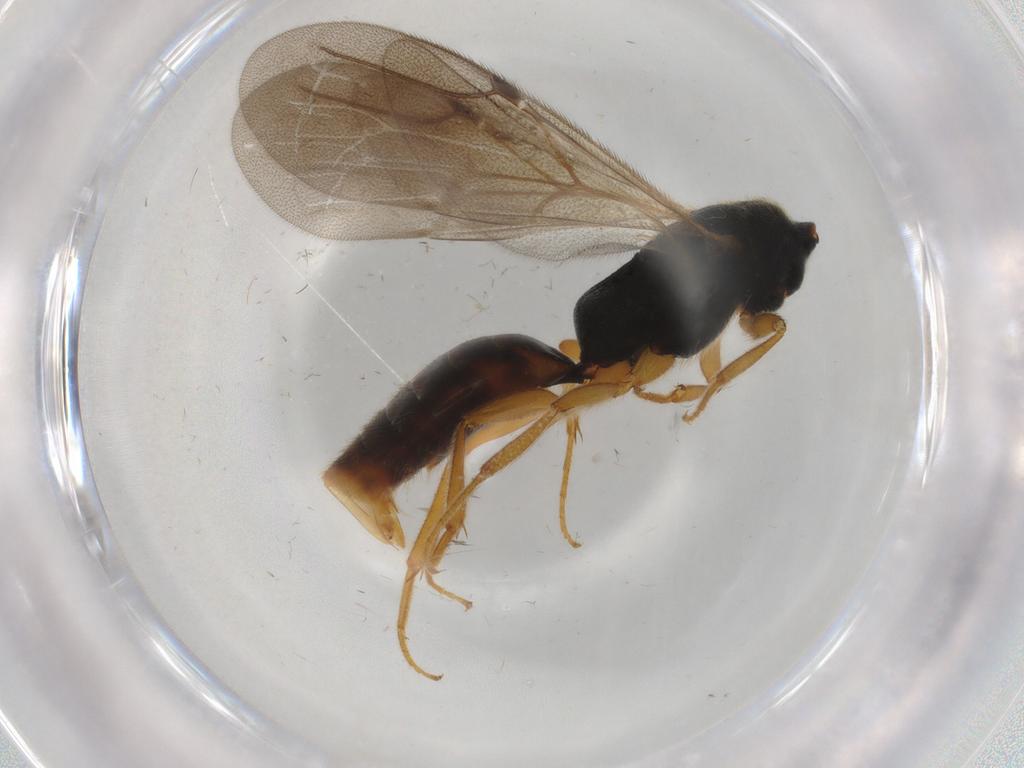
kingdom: Animalia
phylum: Arthropoda
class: Insecta
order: Hymenoptera
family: Bethylidae
